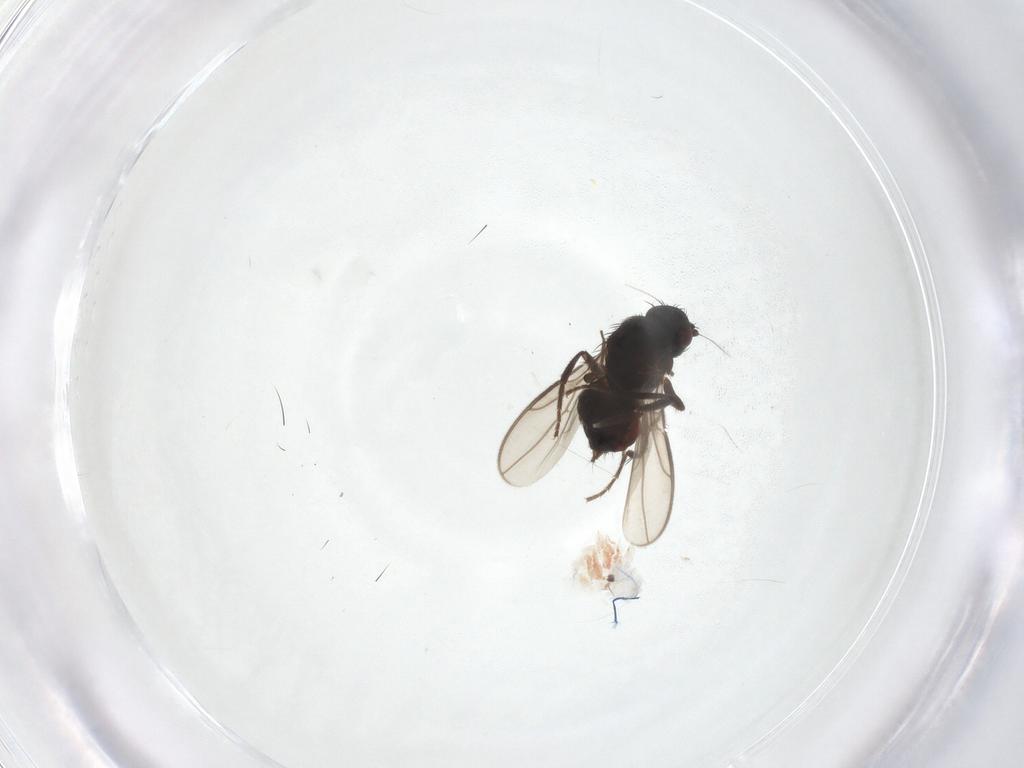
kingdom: Animalia
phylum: Arthropoda
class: Insecta
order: Diptera
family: Sphaeroceridae
